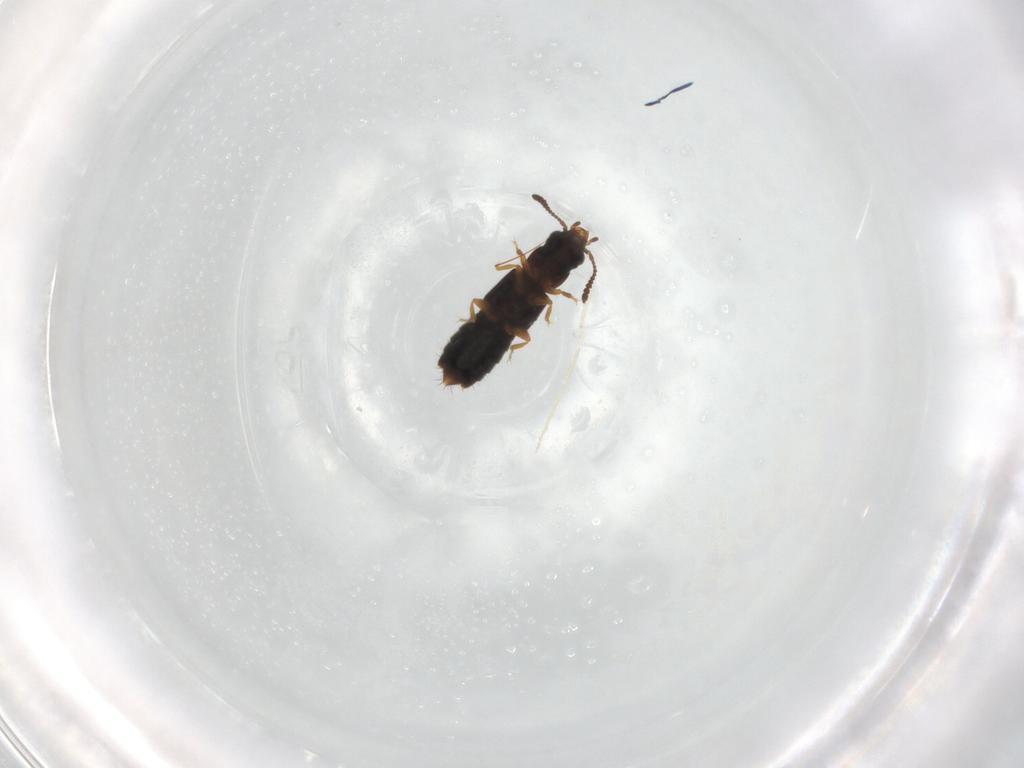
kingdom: Animalia
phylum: Arthropoda
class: Insecta
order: Coleoptera
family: Staphylinidae
